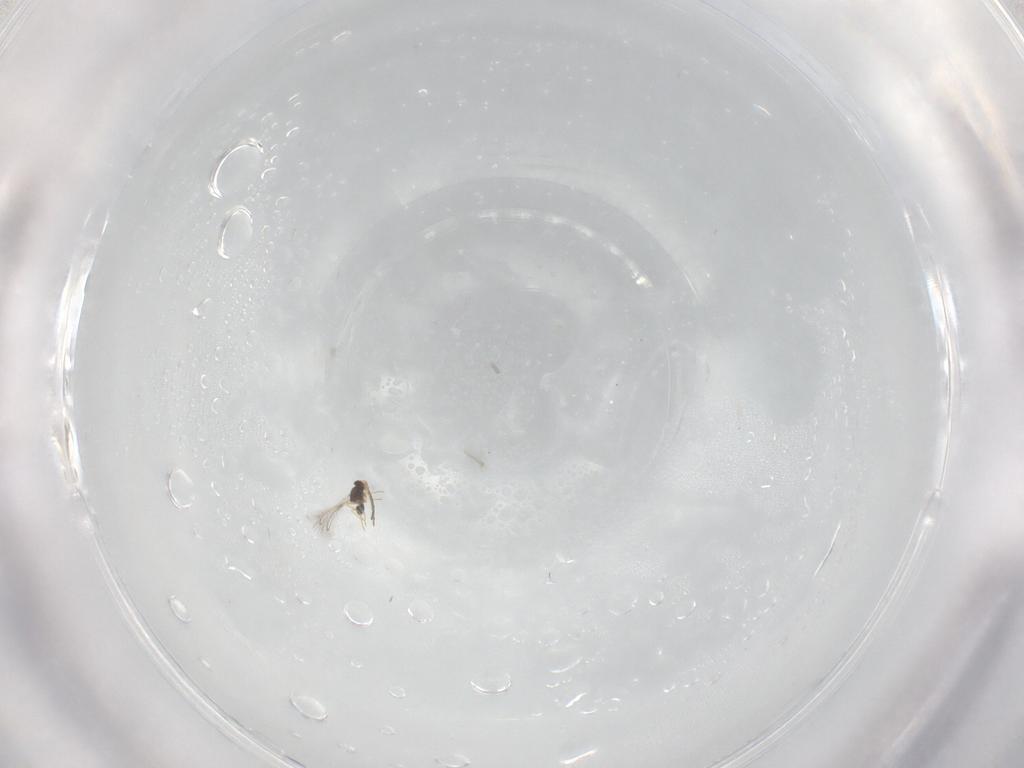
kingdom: Animalia
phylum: Arthropoda
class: Insecta
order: Hymenoptera
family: Mymaridae
